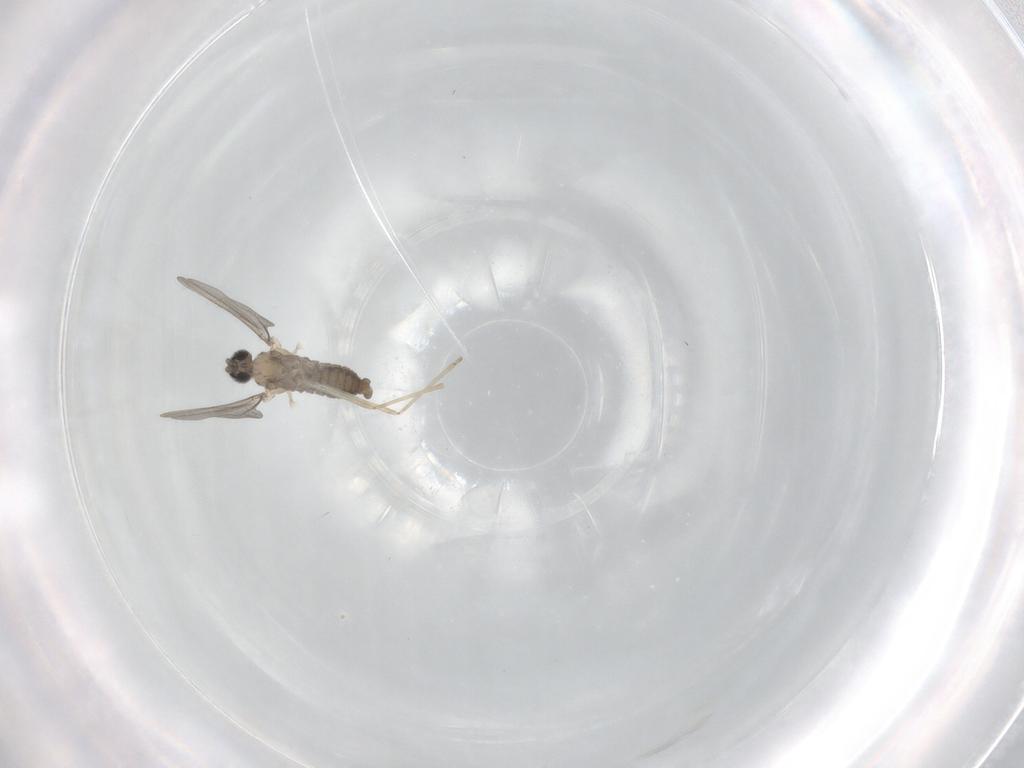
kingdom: Animalia
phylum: Arthropoda
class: Insecta
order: Diptera
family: Cecidomyiidae
